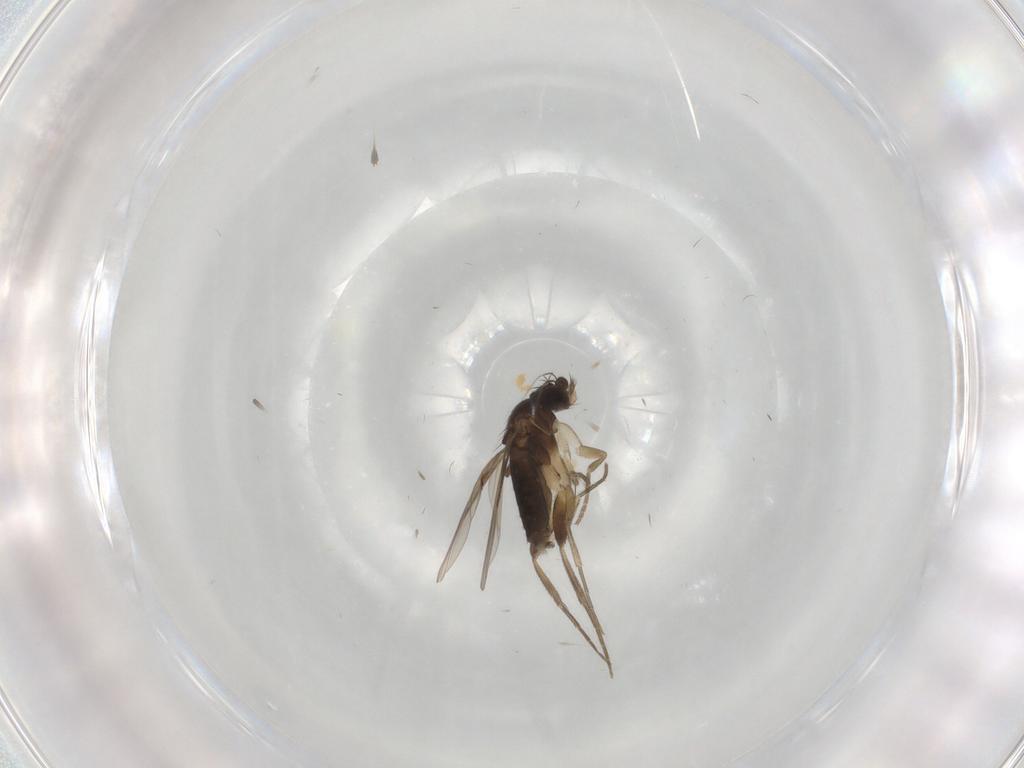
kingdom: Animalia
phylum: Arthropoda
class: Insecta
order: Diptera
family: Phoridae
